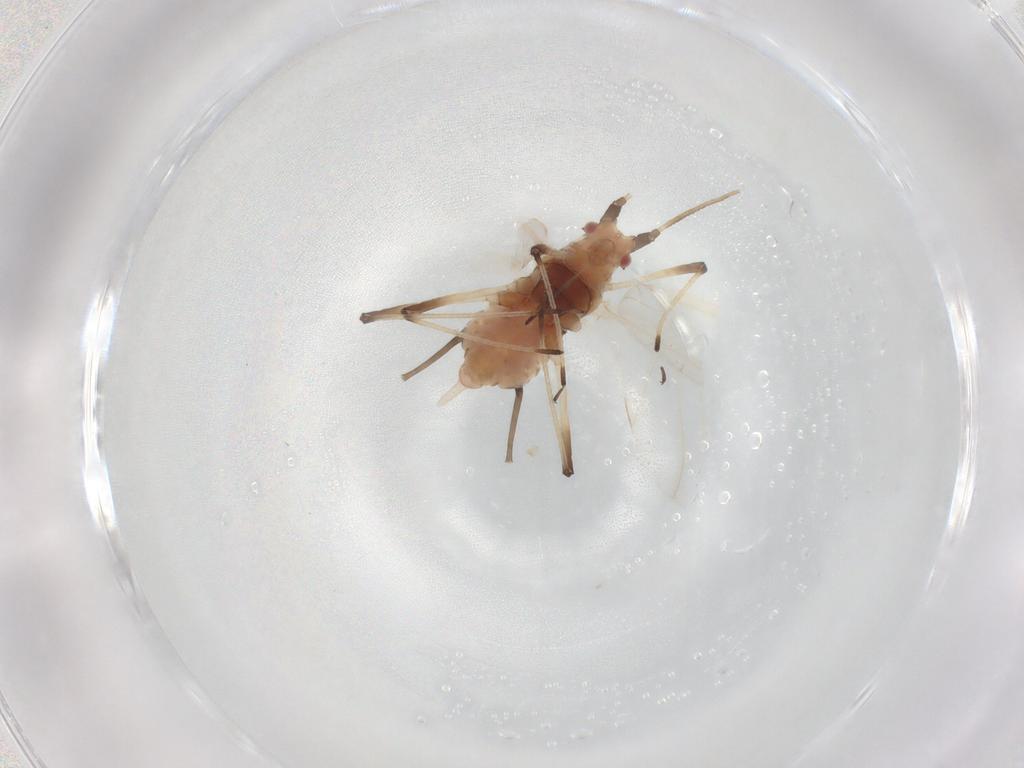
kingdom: Animalia
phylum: Arthropoda
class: Insecta
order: Hemiptera
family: Aphididae
